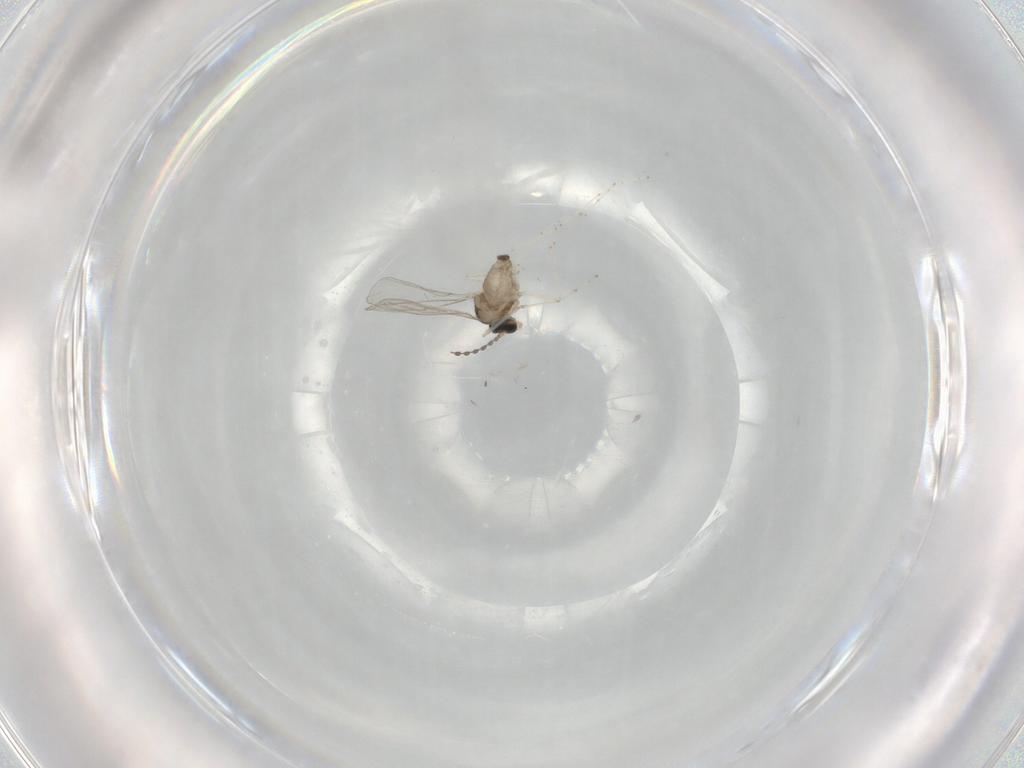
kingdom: Animalia
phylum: Arthropoda
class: Insecta
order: Diptera
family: Cecidomyiidae
